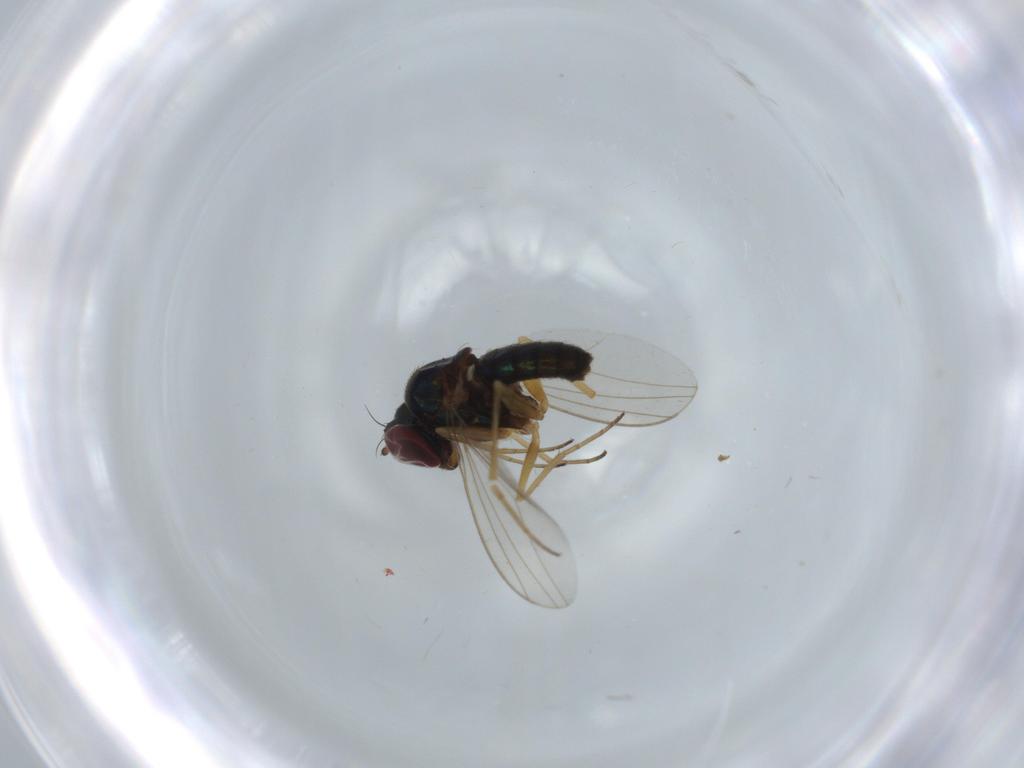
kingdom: Animalia
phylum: Arthropoda
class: Insecta
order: Diptera
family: Dolichopodidae
